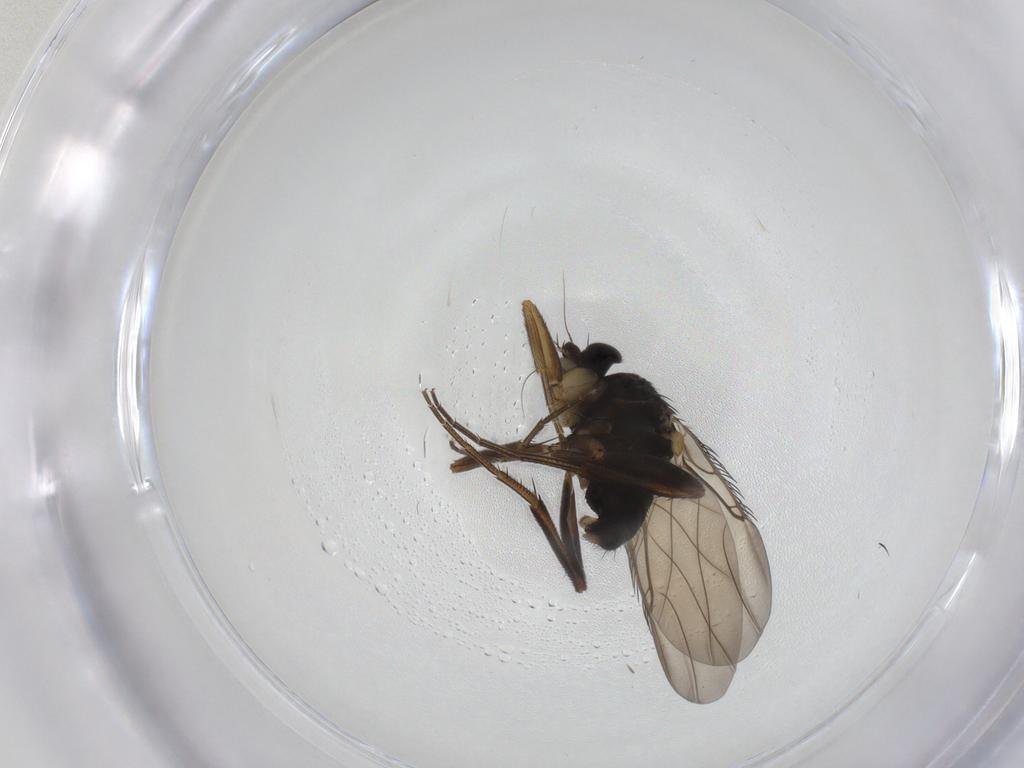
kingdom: Animalia
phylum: Arthropoda
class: Insecta
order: Diptera
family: Phoridae
